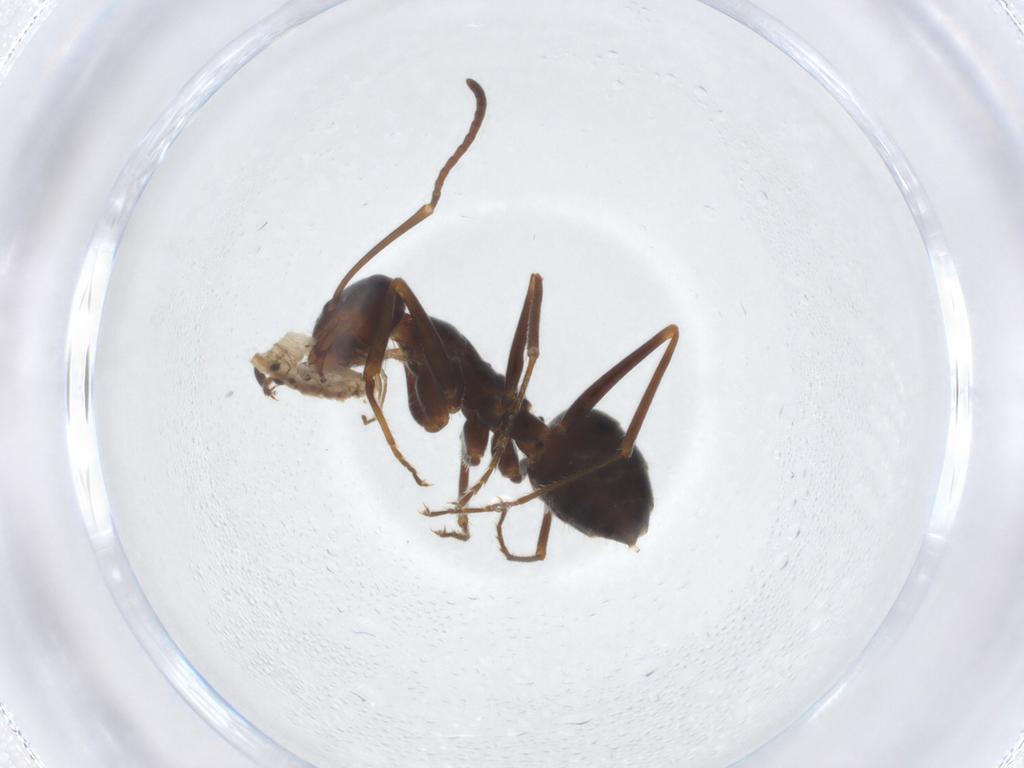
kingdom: Animalia
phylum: Arthropoda
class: Insecta
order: Hymenoptera
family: Formicidae
